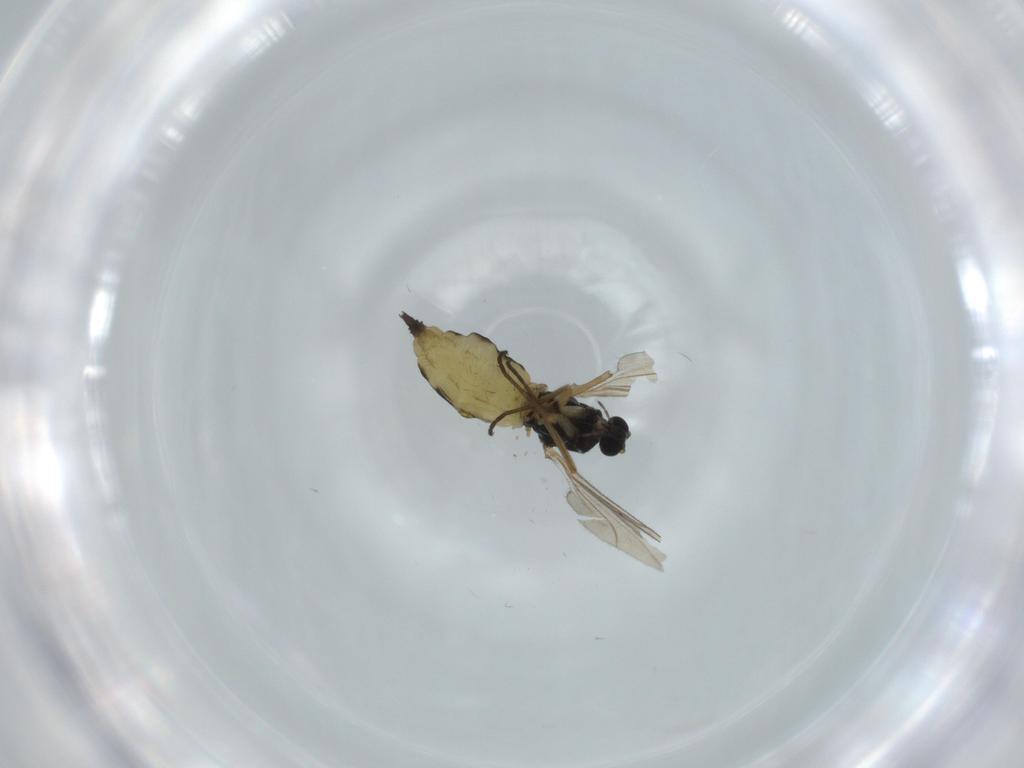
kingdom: Animalia
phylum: Arthropoda
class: Insecta
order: Diptera
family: Sciaridae
